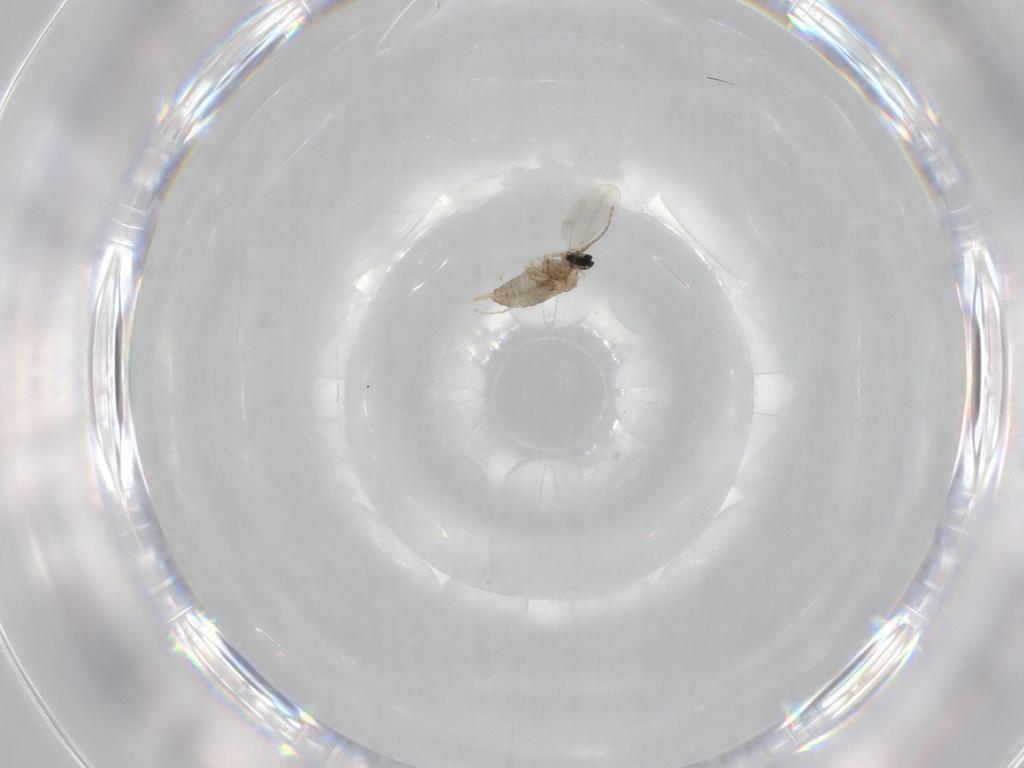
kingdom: Animalia
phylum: Arthropoda
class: Insecta
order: Diptera
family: Cecidomyiidae
